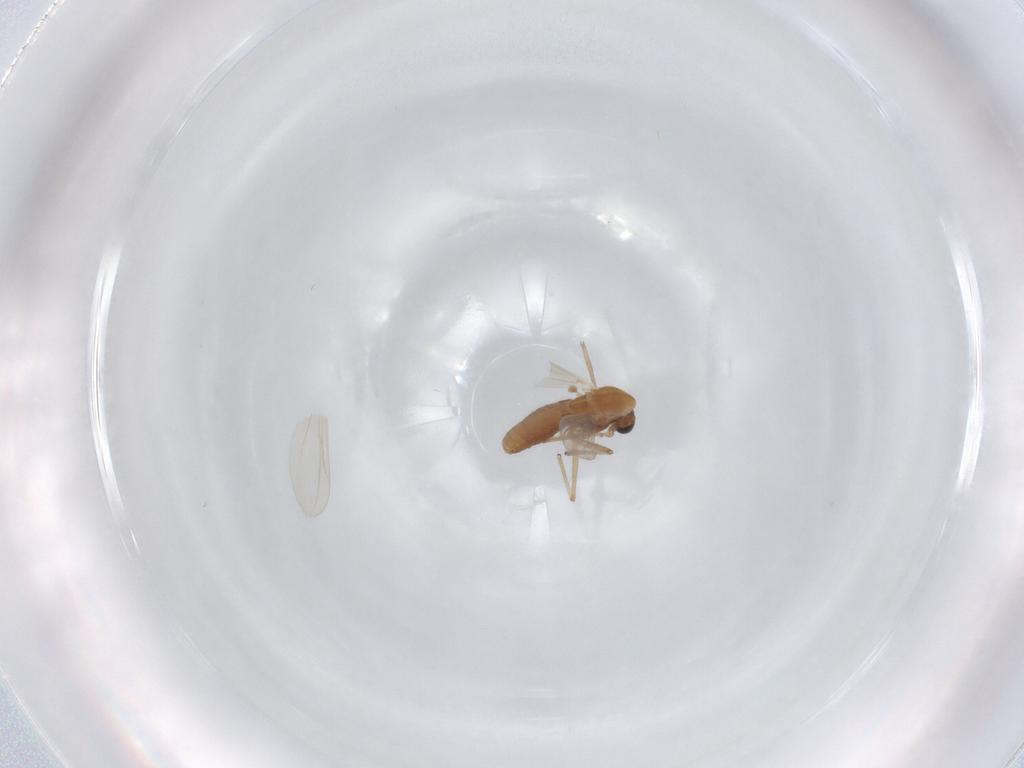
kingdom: Animalia
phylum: Arthropoda
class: Insecta
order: Diptera
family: Chironomidae
